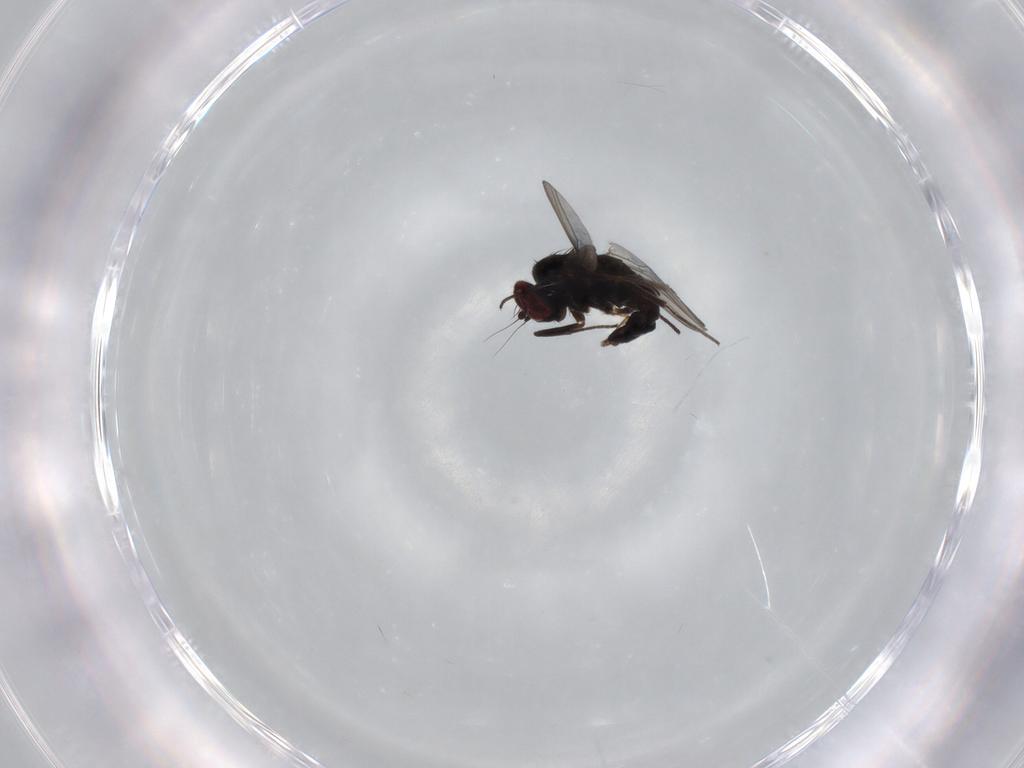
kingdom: Animalia
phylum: Arthropoda
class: Insecta
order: Diptera
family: Dolichopodidae
